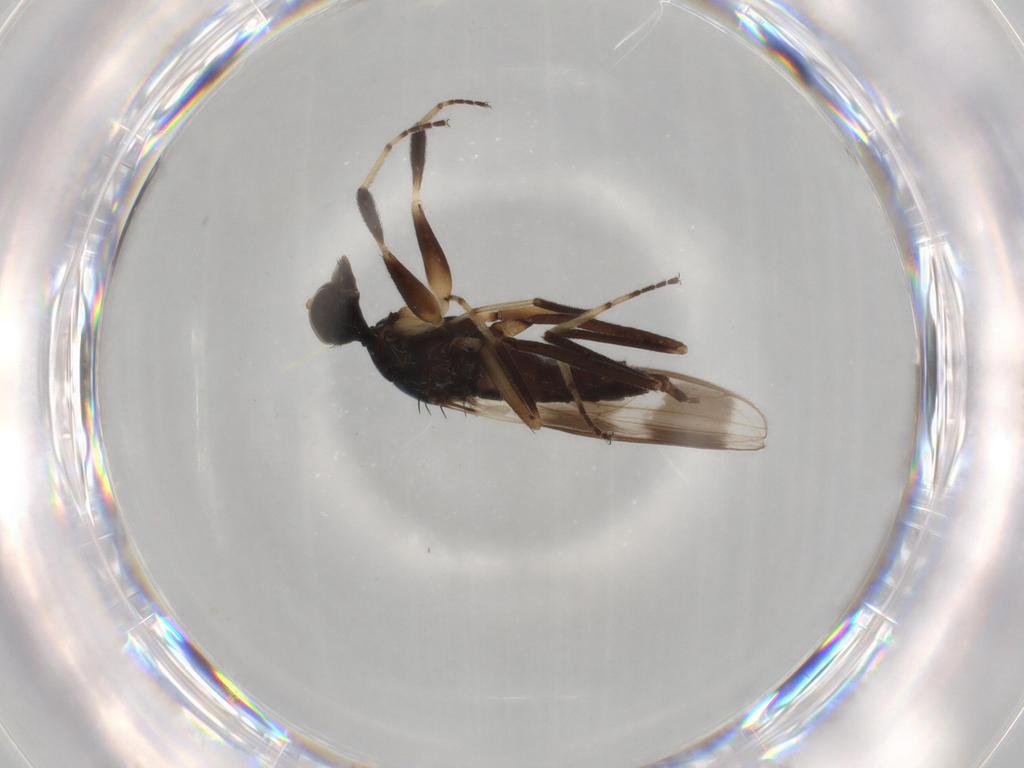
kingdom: Animalia
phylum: Arthropoda
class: Insecta
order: Diptera
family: Hybotidae
